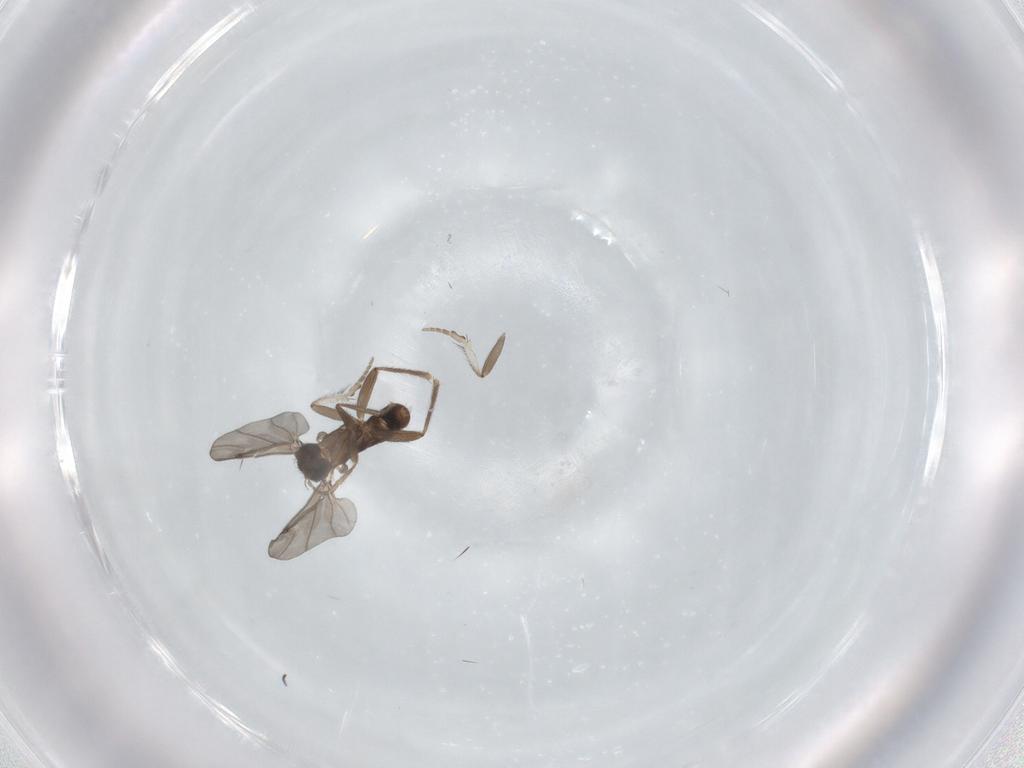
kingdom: Animalia
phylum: Arthropoda
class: Insecta
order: Diptera
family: Phoridae
